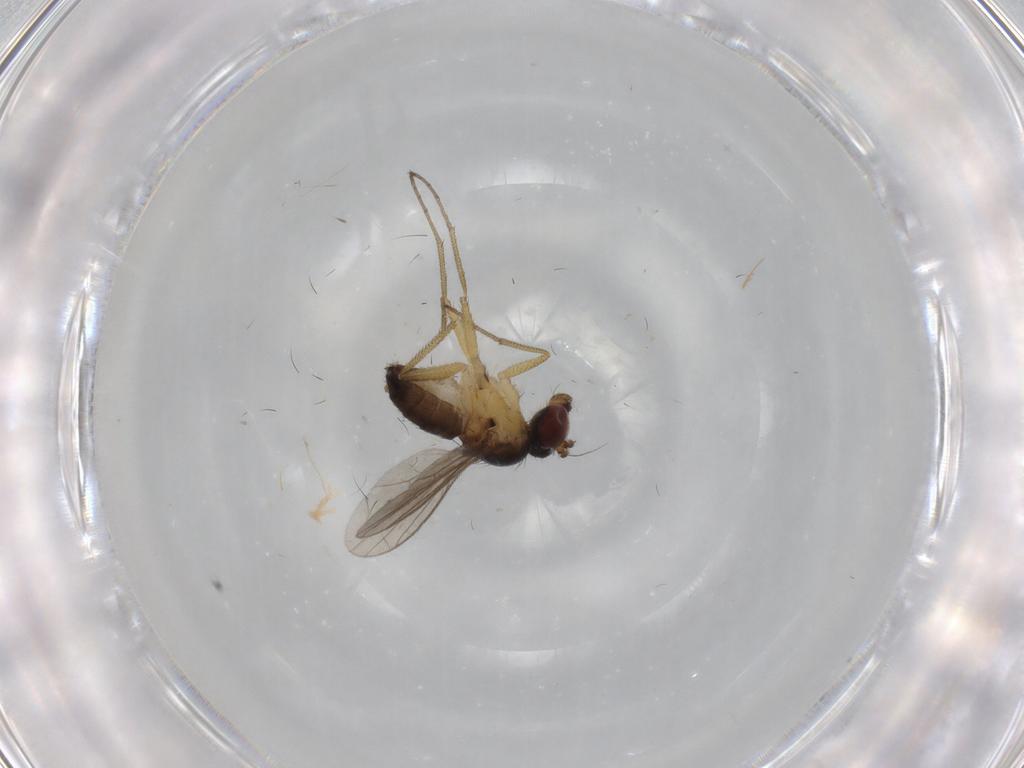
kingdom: Animalia
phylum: Arthropoda
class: Insecta
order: Diptera
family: Dolichopodidae
